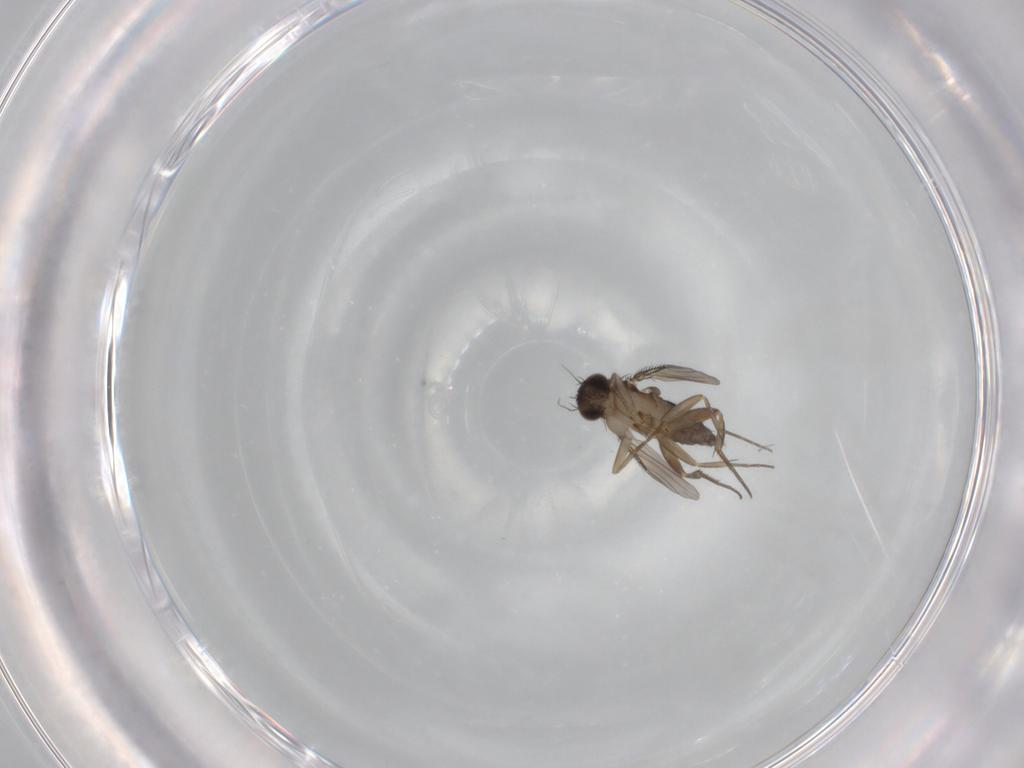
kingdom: Animalia
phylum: Arthropoda
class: Insecta
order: Diptera
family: Phoridae
